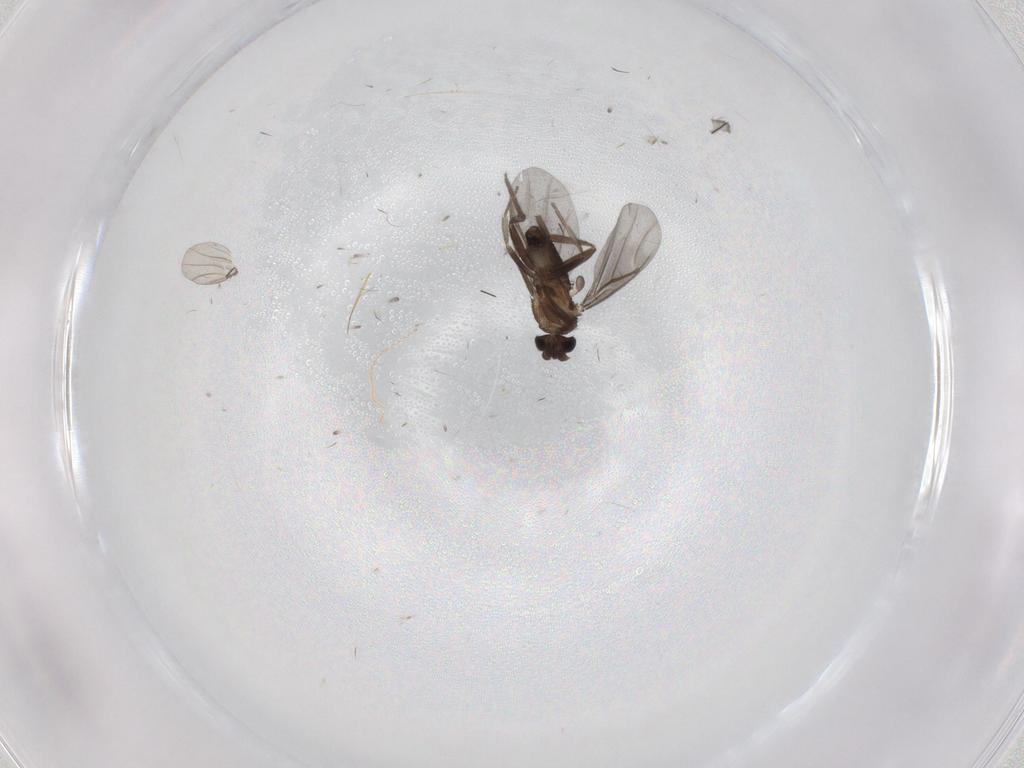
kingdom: Animalia
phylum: Arthropoda
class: Insecta
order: Diptera
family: Phoridae
